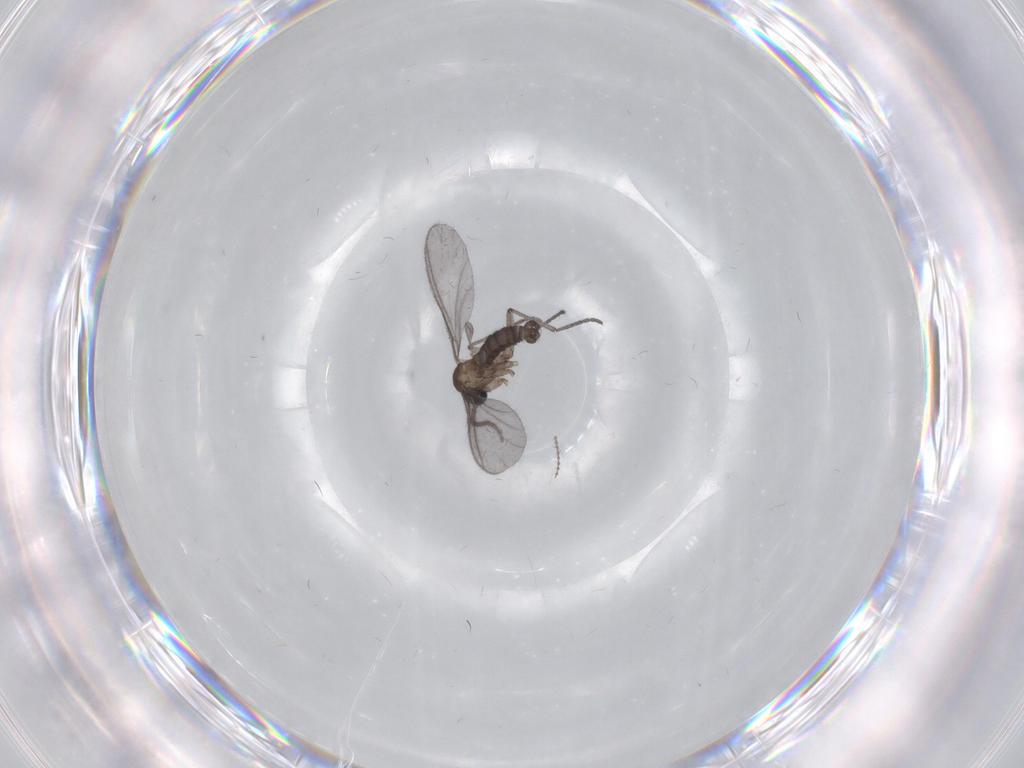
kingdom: Animalia
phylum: Arthropoda
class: Insecta
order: Diptera
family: Sciaridae
